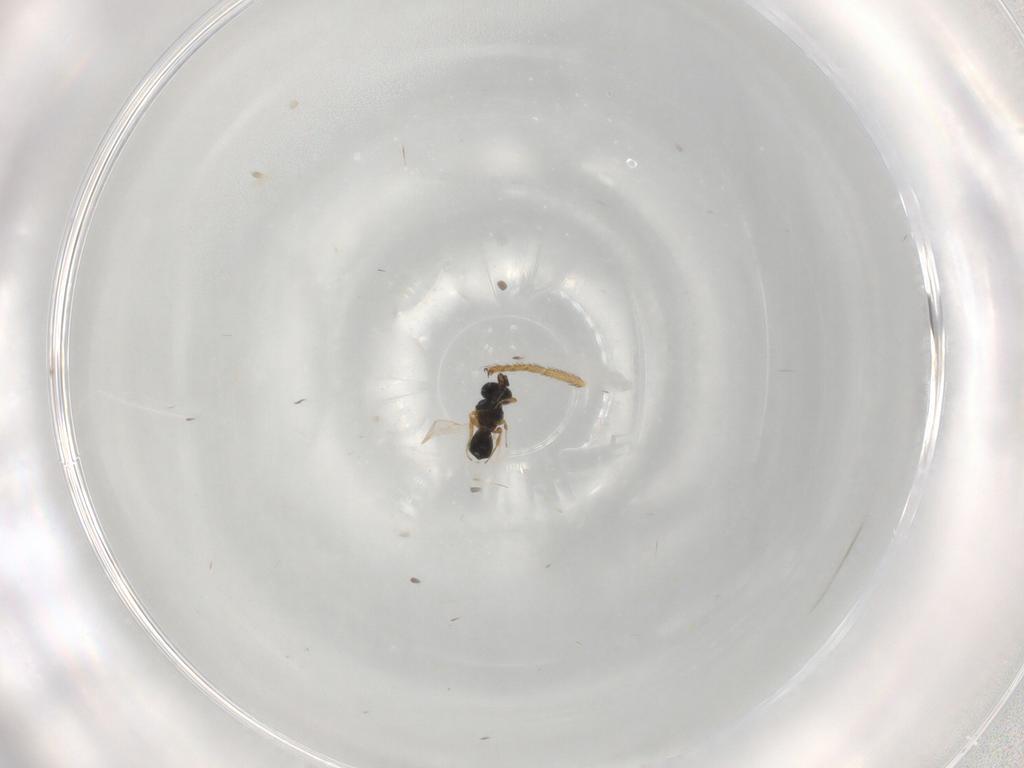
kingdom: Animalia
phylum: Arthropoda
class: Insecta
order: Hymenoptera
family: Scelionidae
